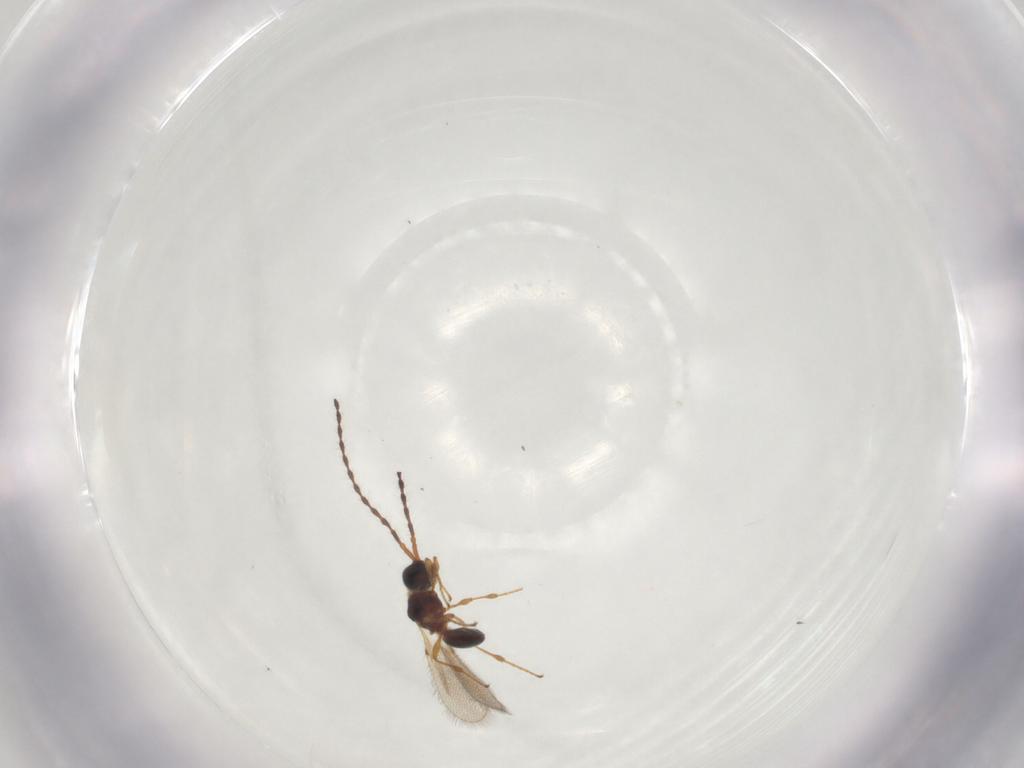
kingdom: Animalia
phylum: Arthropoda
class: Insecta
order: Hymenoptera
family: Diapriidae
